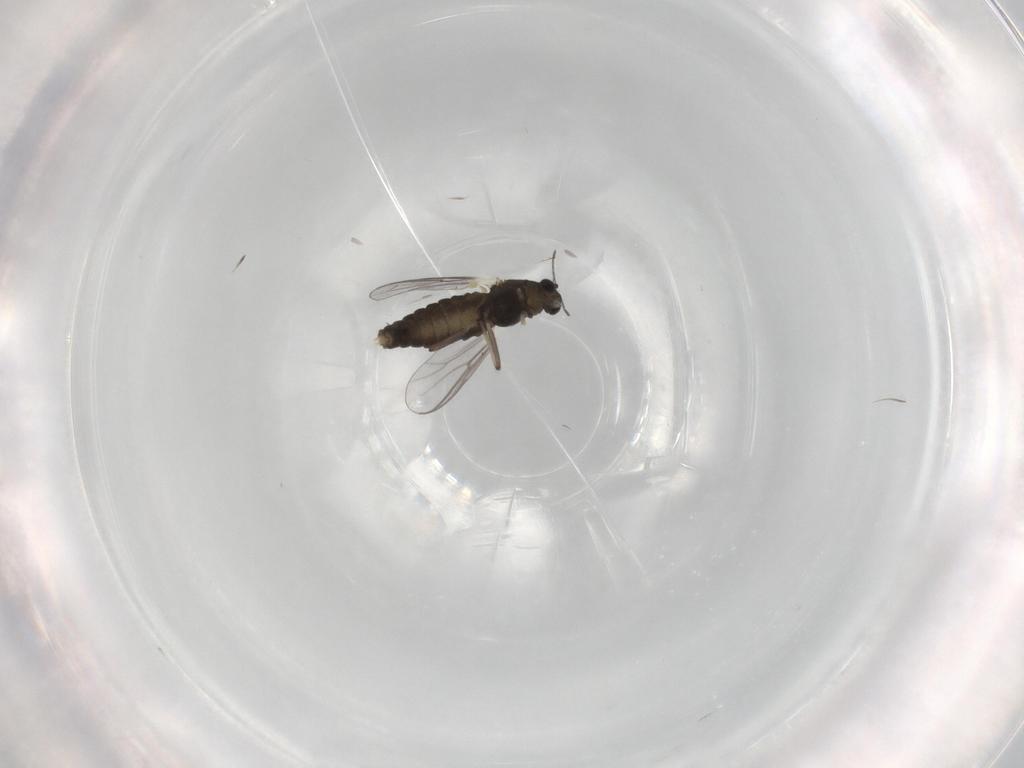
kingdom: Animalia
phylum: Arthropoda
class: Insecta
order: Diptera
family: Chironomidae
